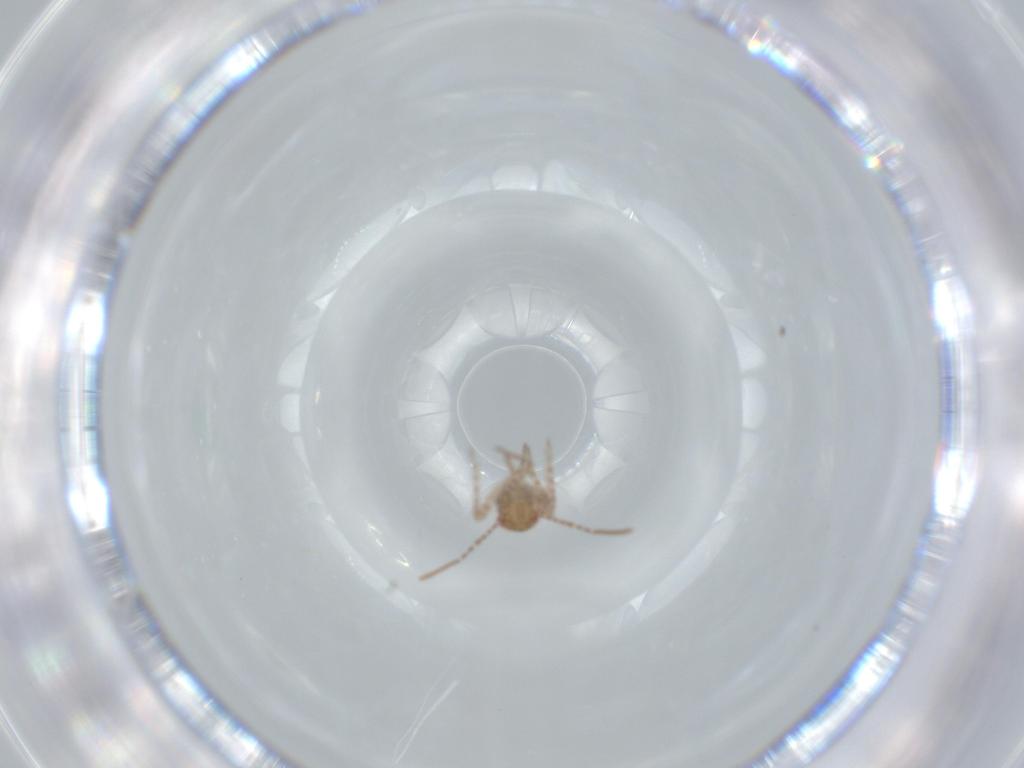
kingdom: Animalia
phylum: Arthropoda
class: Insecta
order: Hemiptera
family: Miridae
